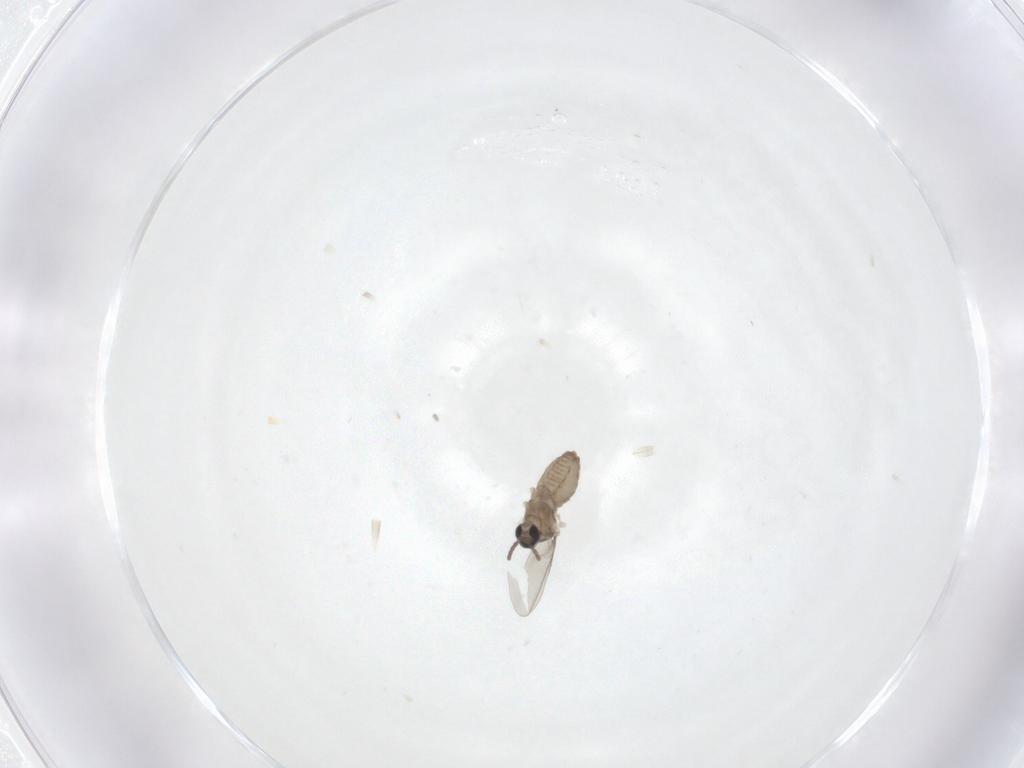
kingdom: Animalia
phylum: Arthropoda
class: Insecta
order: Diptera
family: Cecidomyiidae
